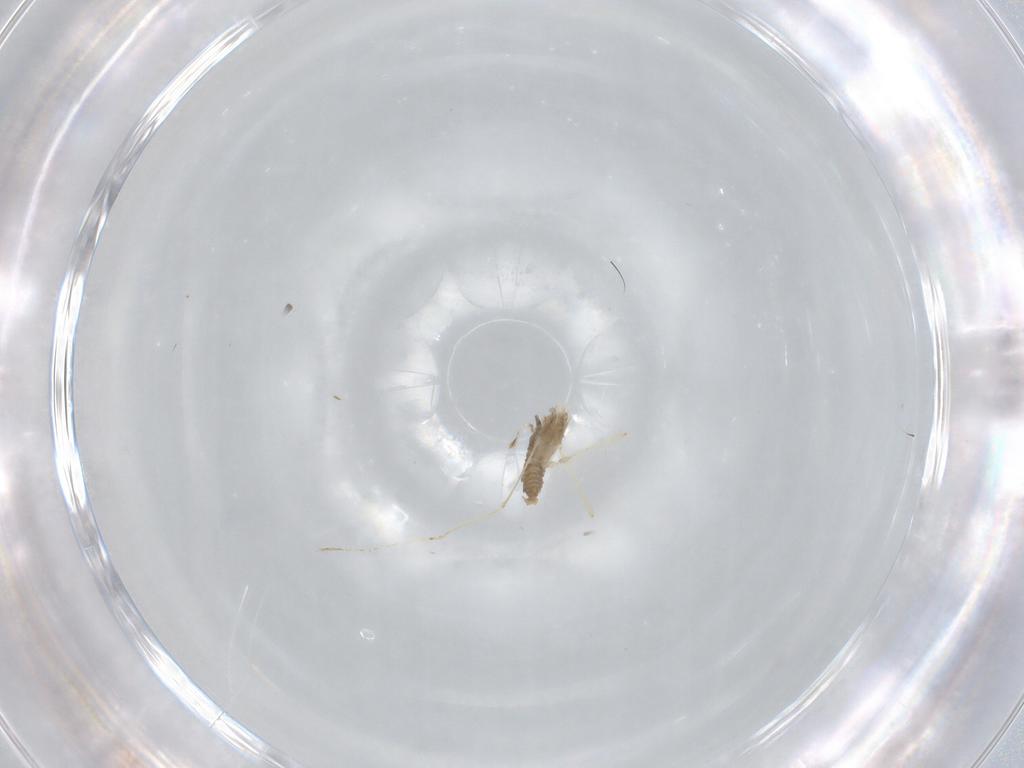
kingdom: Animalia
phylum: Arthropoda
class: Insecta
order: Diptera
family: Cecidomyiidae
